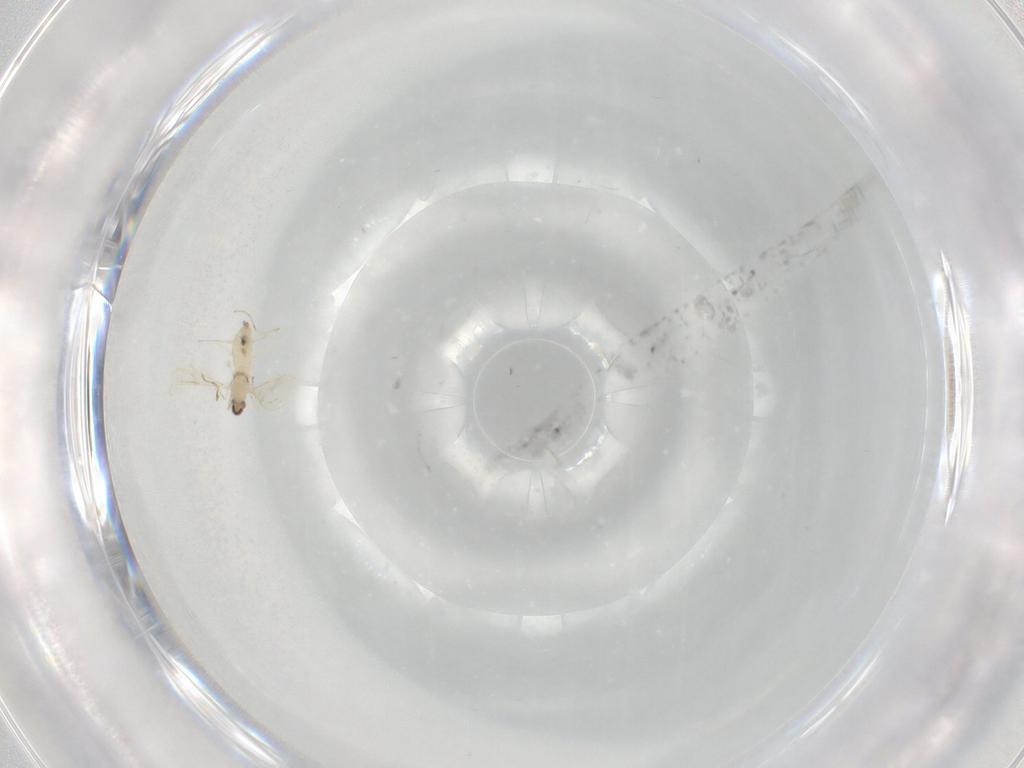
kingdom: Animalia
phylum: Arthropoda
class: Insecta
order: Diptera
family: Cecidomyiidae
